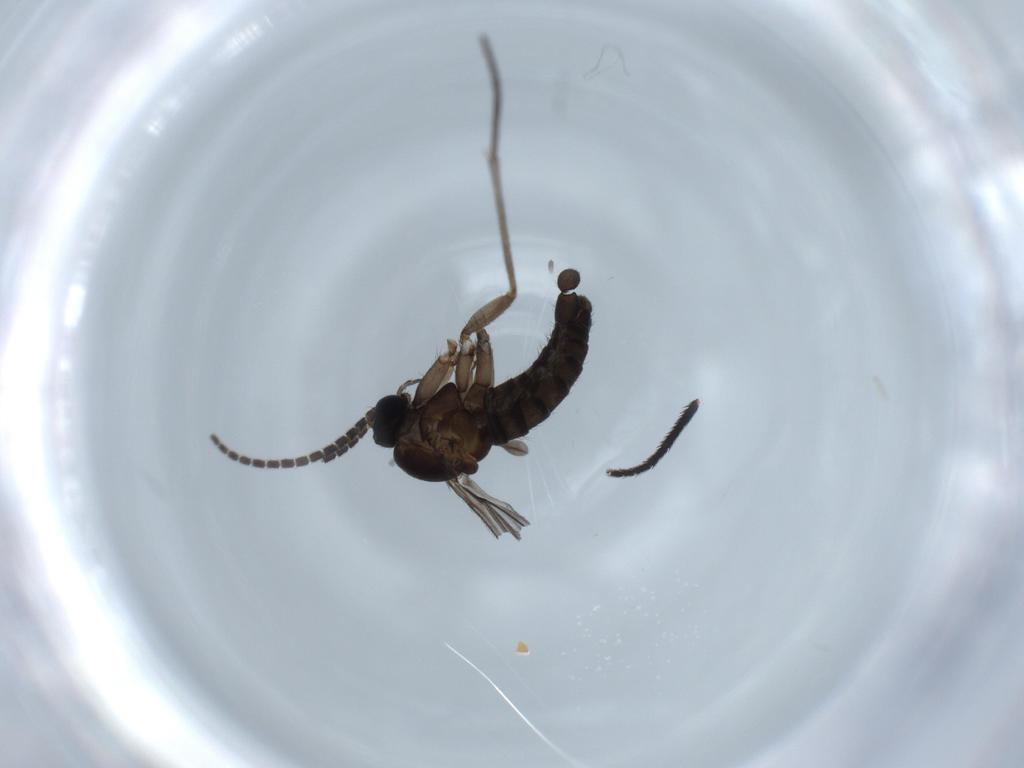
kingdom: Animalia
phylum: Arthropoda
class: Insecta
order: Diptera
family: Sciaridae
